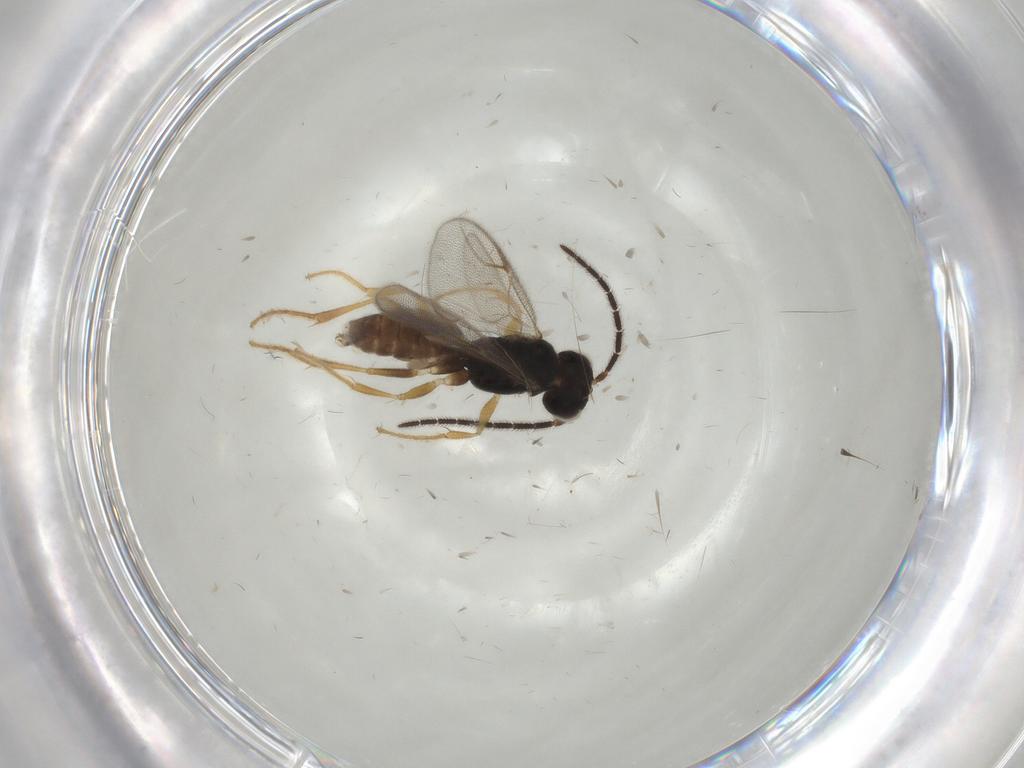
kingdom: Animalia
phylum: Arthropoda
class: Insecta
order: Hymenoptera
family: Dryinidae
